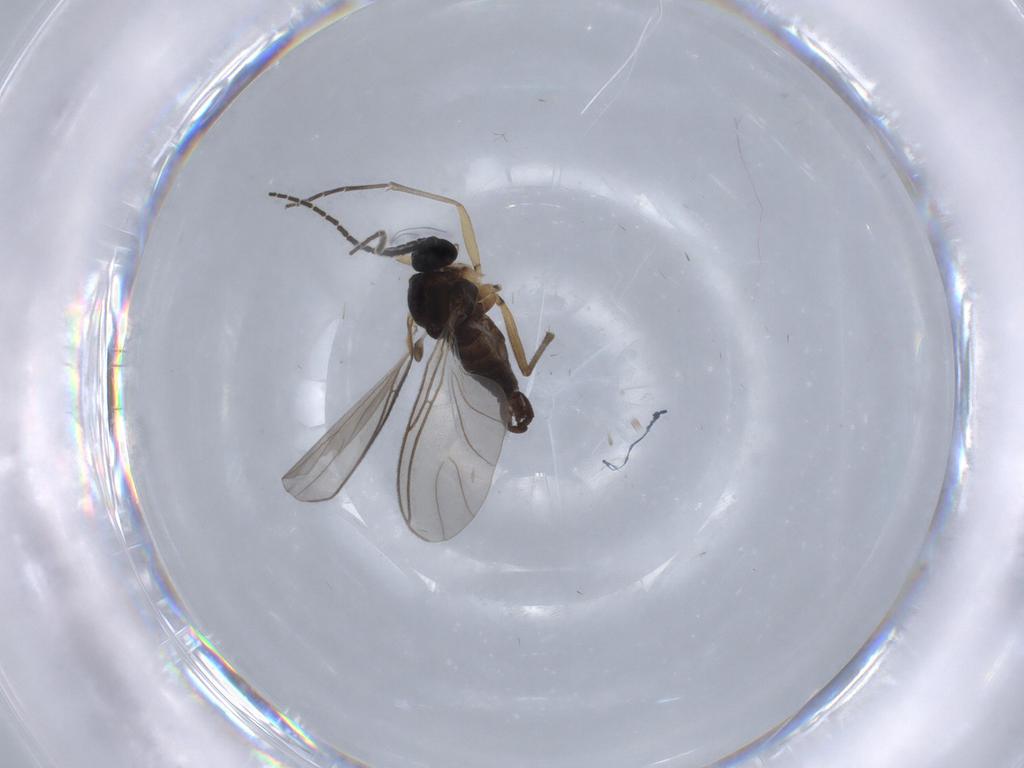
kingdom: Animalia
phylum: Arthropoda
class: Insecta
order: Diptera
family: Sciaridae
